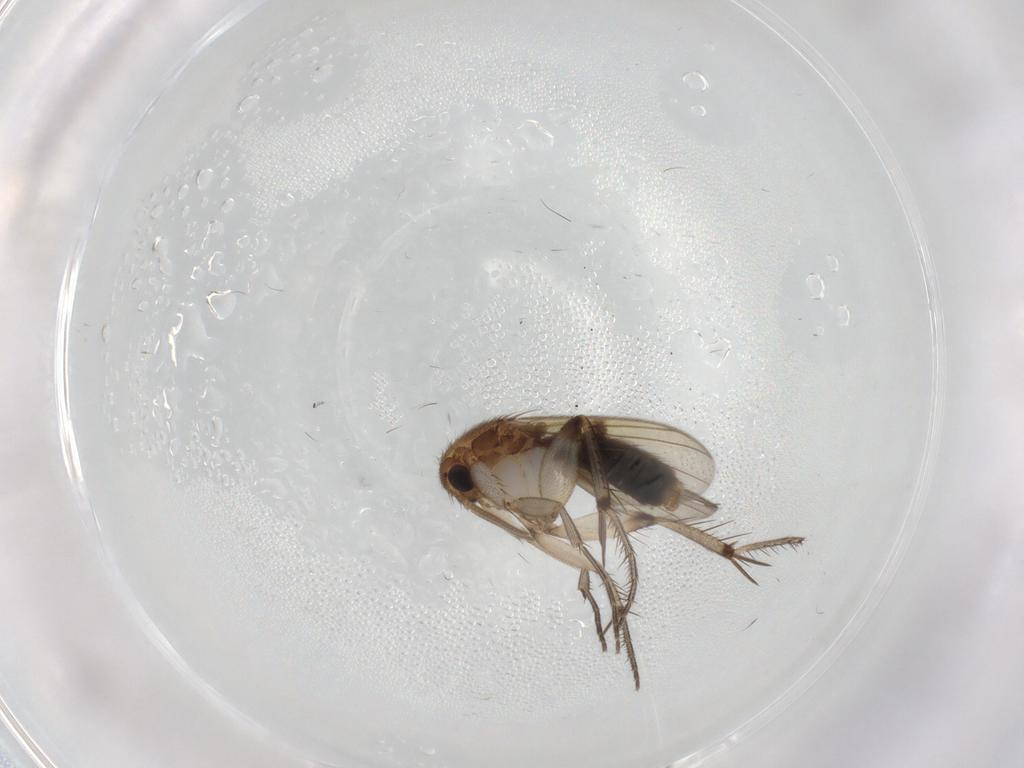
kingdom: Animalia
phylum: Arthropoda
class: Insecta
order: Diptera
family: Mycetophilidae
